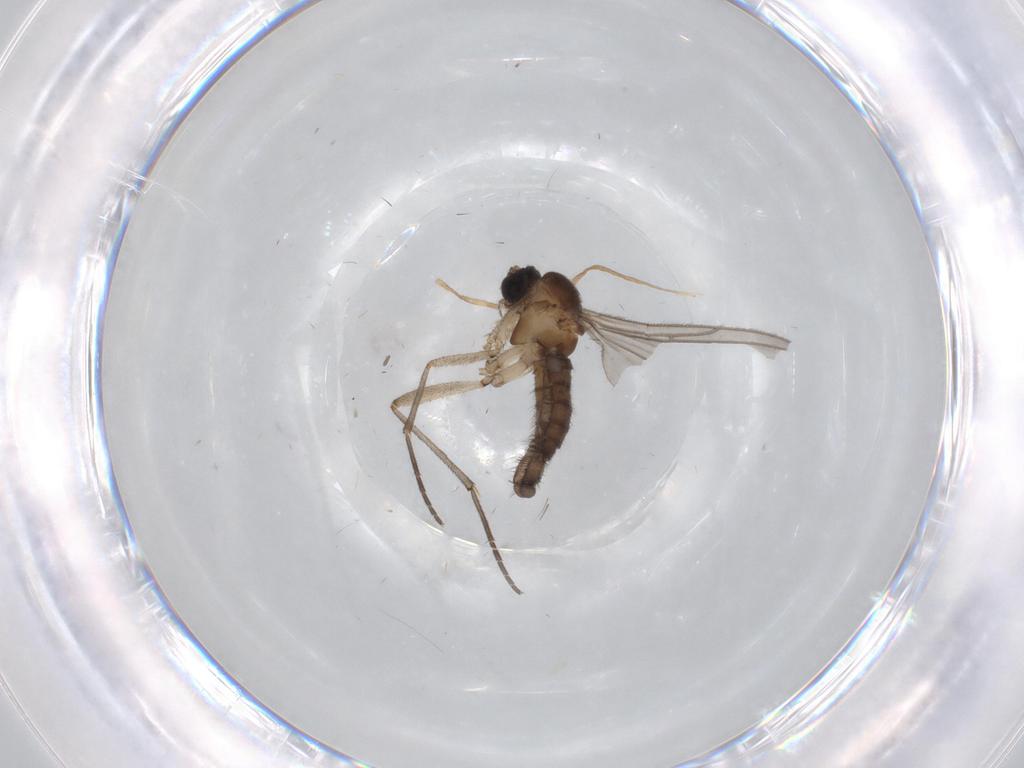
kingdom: Animalia
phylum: Arthropoda
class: Insecta
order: Diptera
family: Sciaridae
